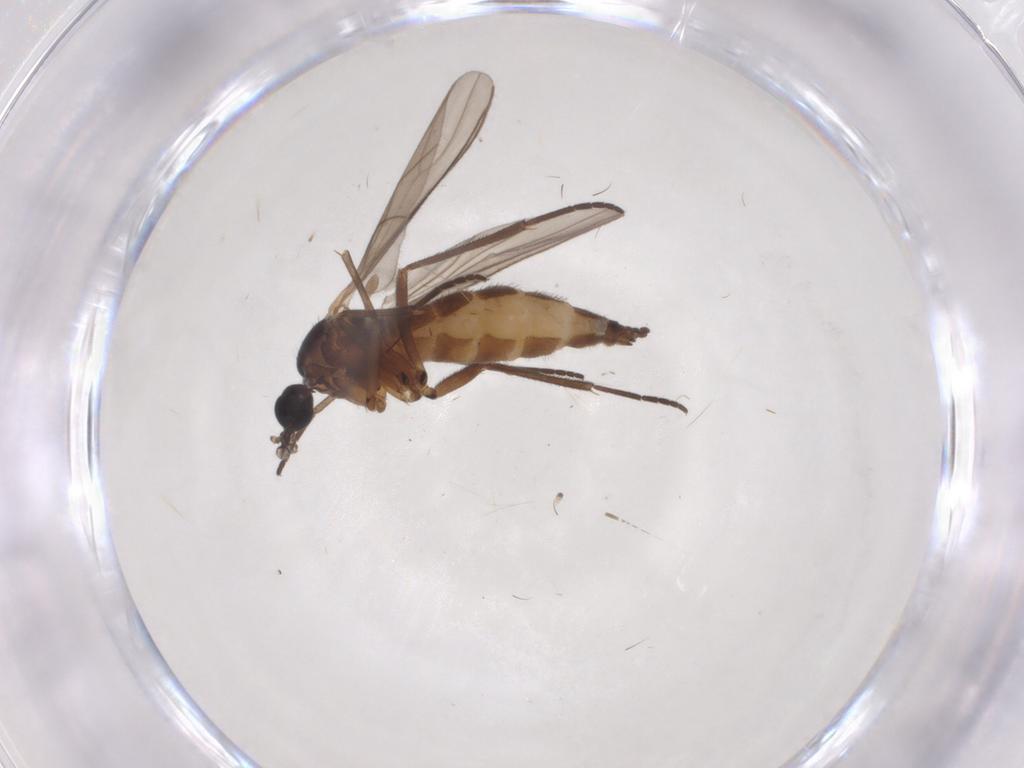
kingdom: Animalia
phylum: Arthropoda
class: Insecta
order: Diptera
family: Sciaridae
